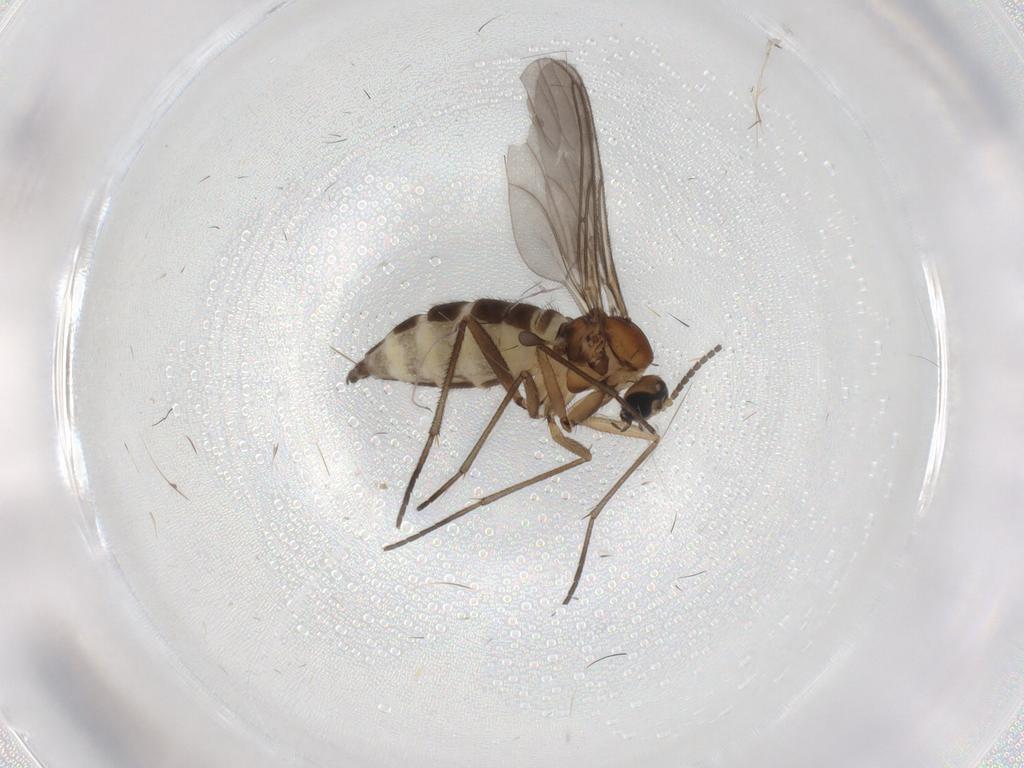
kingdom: Animalia
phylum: Arthropoda
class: Insecta
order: Diptera
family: Sciaridae
